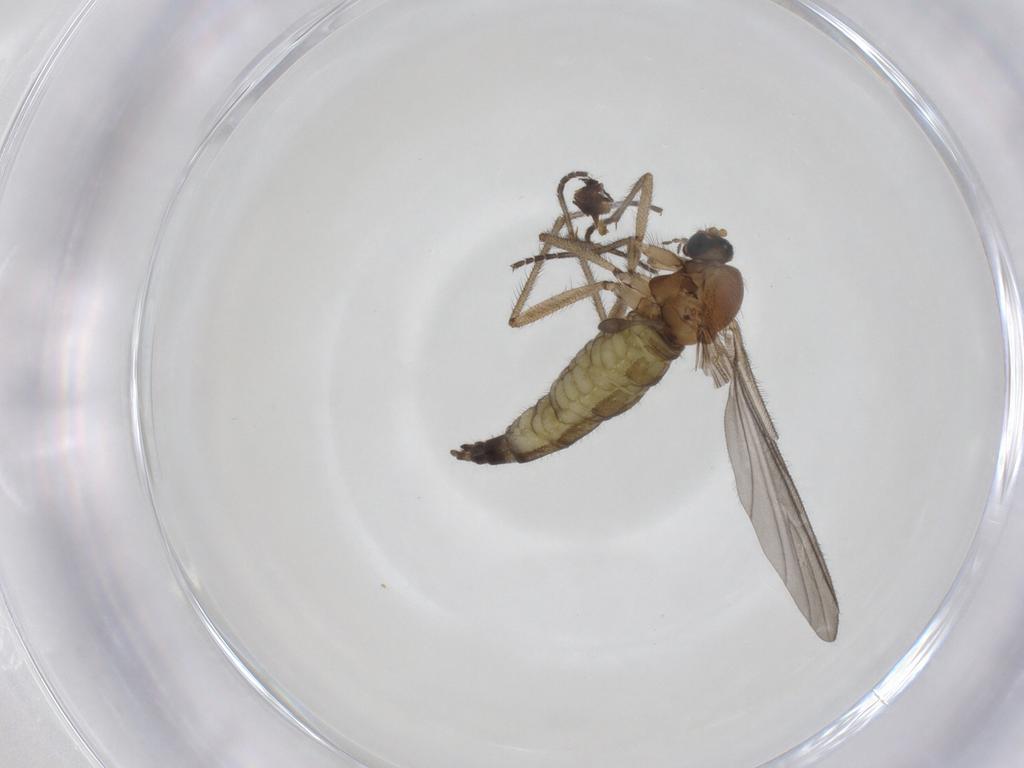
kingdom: Animalia
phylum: Arthropoda
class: Insecta
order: Diptera
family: Sciaridae
